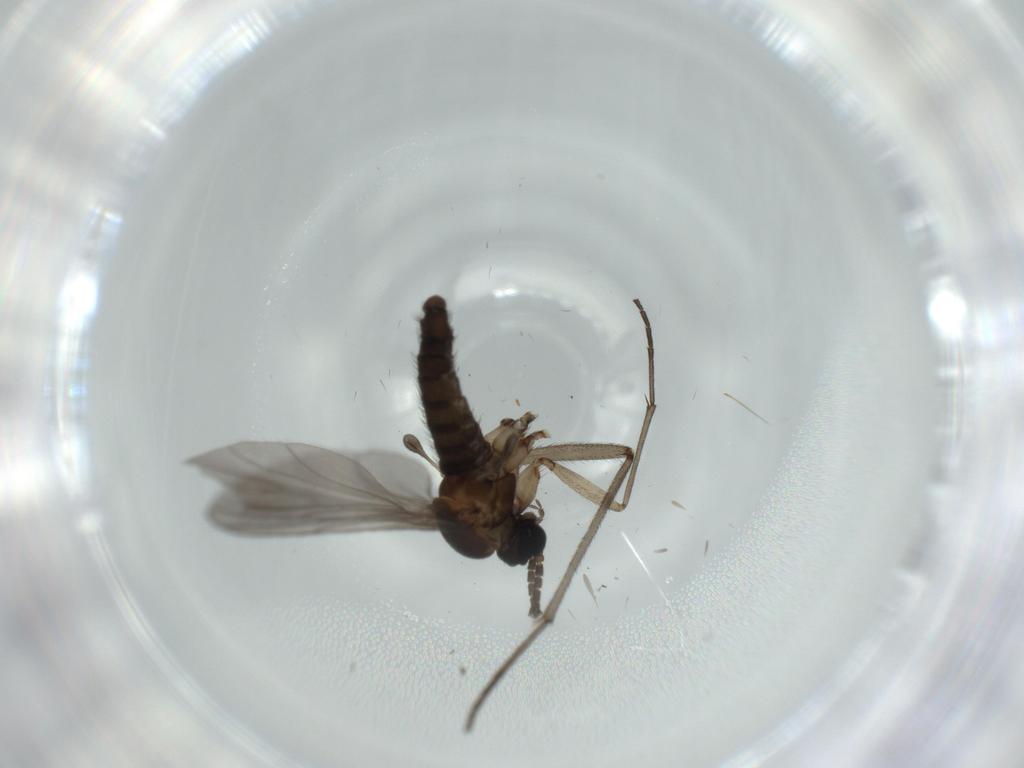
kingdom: Animalia
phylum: Arthropoda
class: Insecta
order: Diptera
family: Sciaridae
